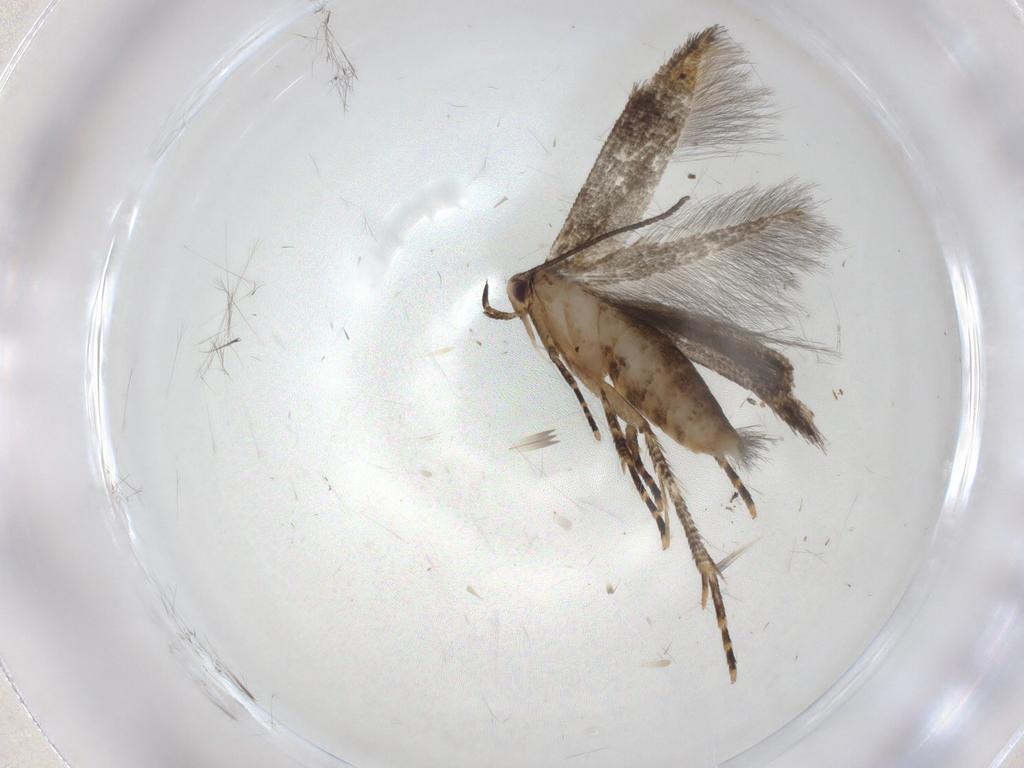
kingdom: Animalia
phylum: Arthropoda
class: Insecta
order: Lepidoptera
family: Cosmopterigidae
